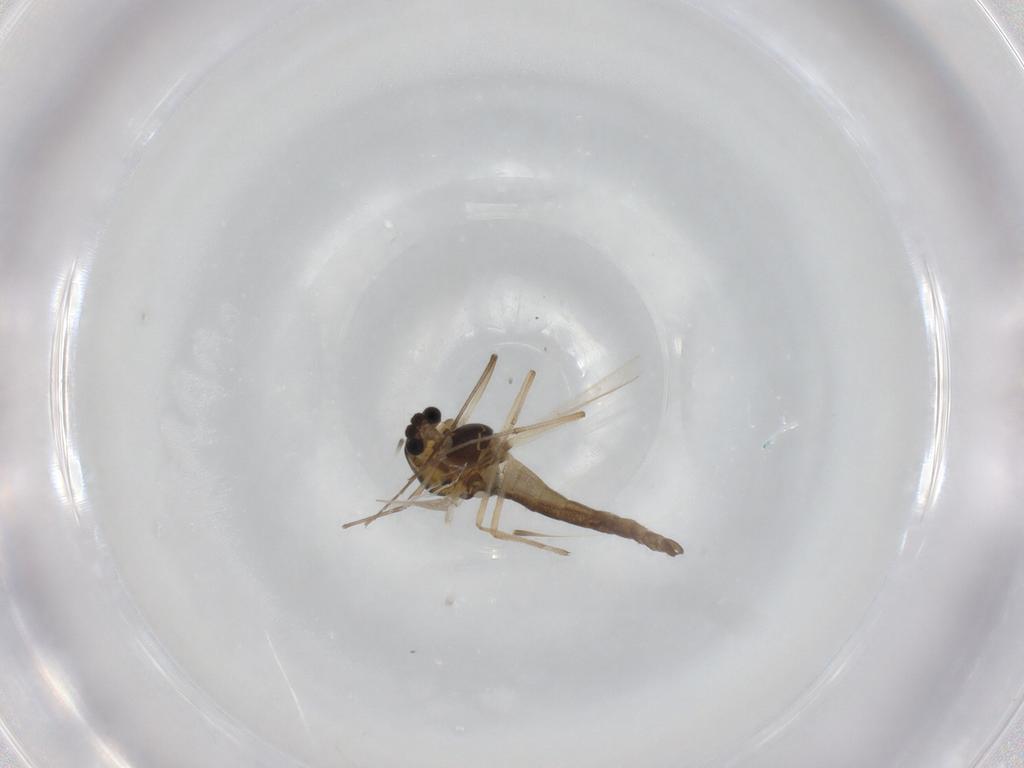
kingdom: Animalia
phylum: Arthropoda
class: Insecta
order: Diptera
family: Chironomidae
